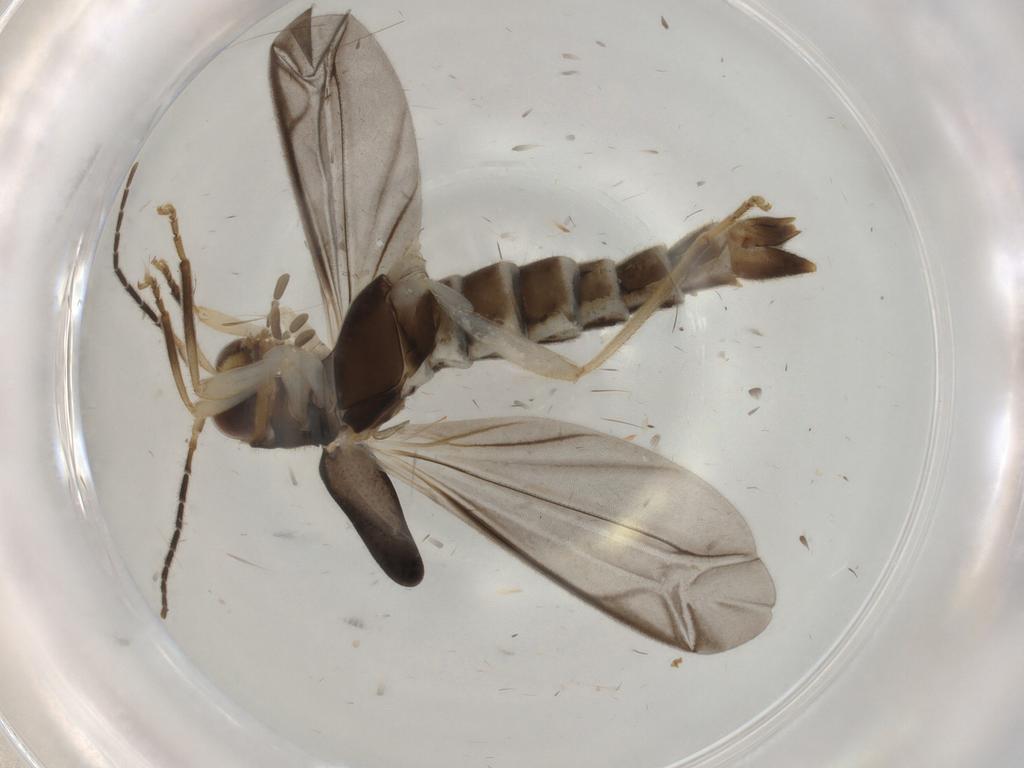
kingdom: Animalia
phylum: Arthropoda
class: Insecta
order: Coleoptera
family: Cantharidae
